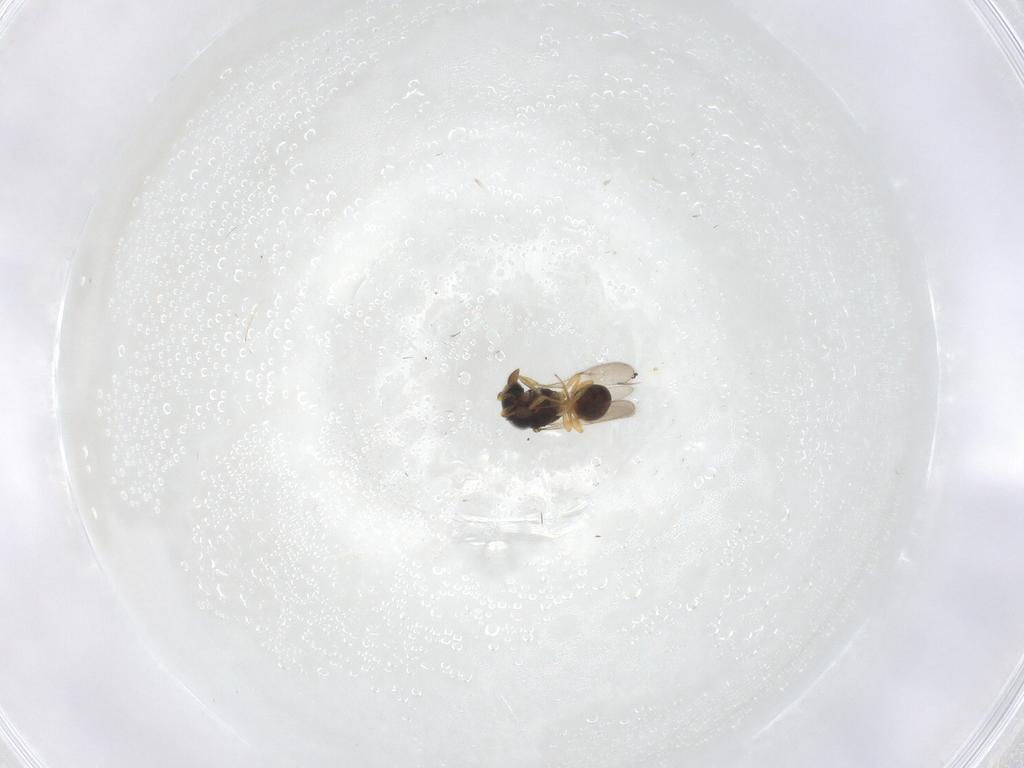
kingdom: Animalia
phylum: Arthropoda
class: Insecta
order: Hymenoptera
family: Scelionidae
